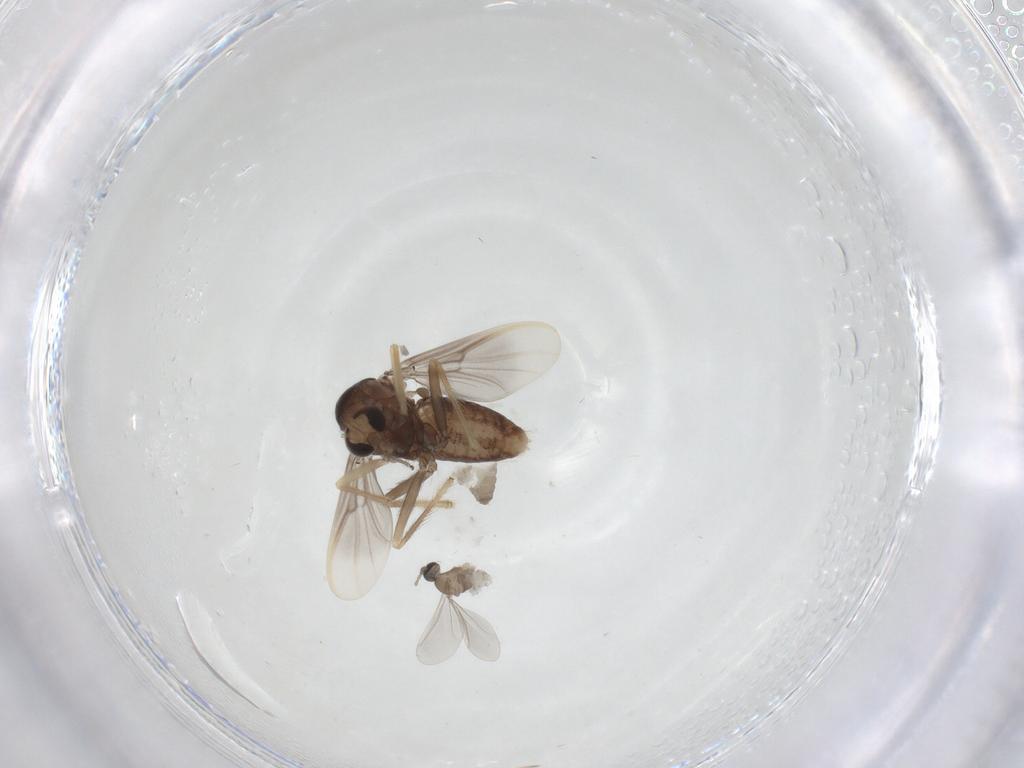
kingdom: Animalia
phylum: Arthropoda
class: Insecta
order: Diptera
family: Chironomidae
